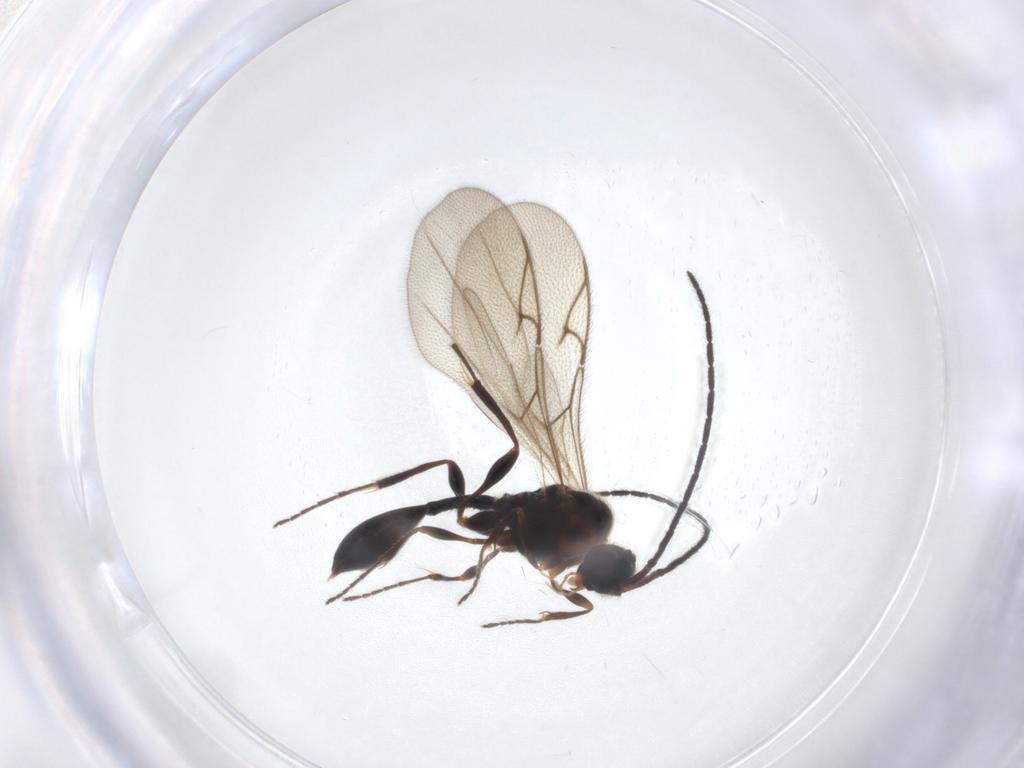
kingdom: Animalia
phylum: Arthropoda
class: Insecta
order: Hymenoptera
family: Diapriidae
